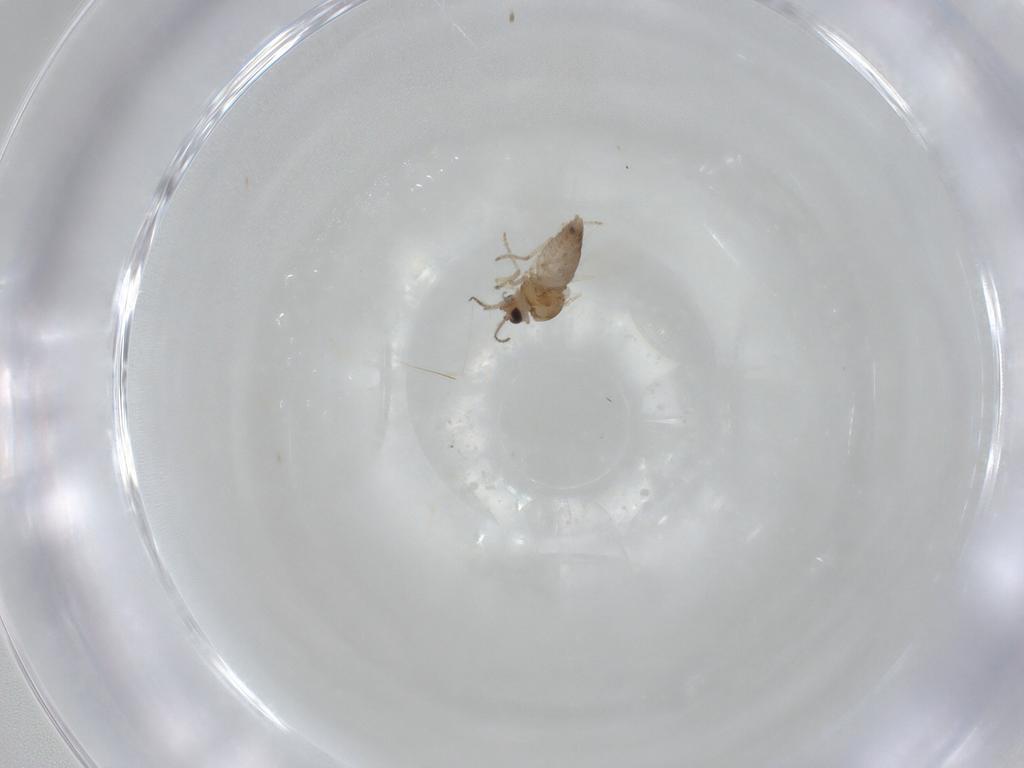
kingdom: Animalia
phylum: Arthropoda
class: Insecta
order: Diptera
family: Ceratopogonidae
